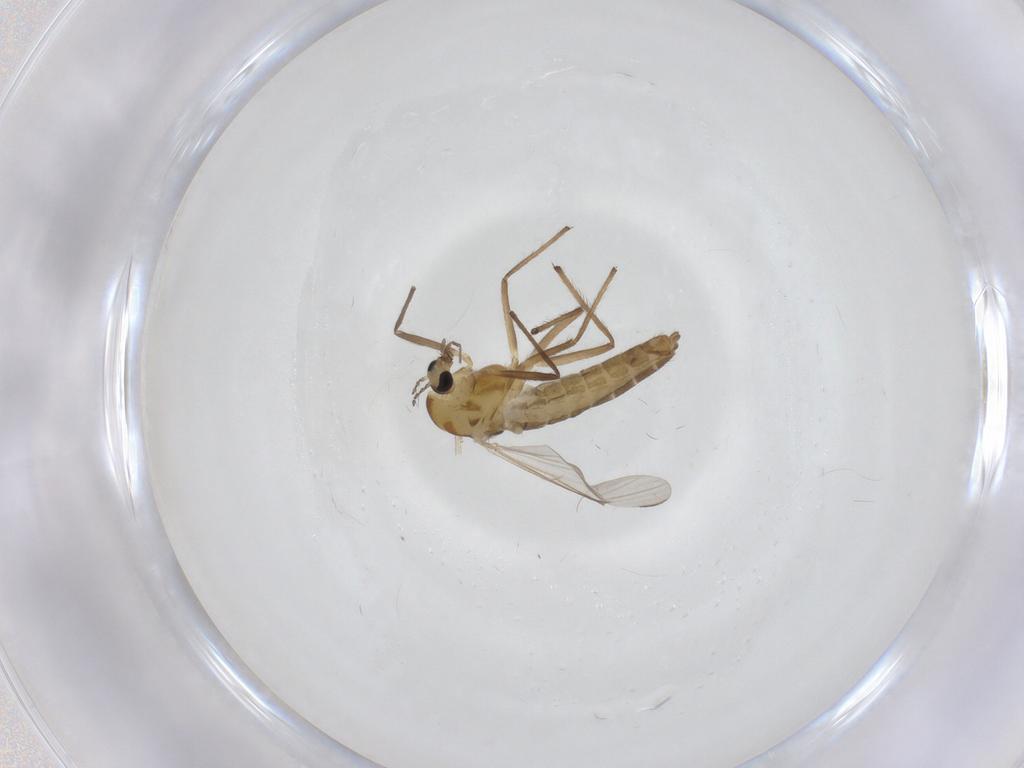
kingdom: Animalia
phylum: Arthropoda
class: Insecta
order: Diptera
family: Chironomidae
